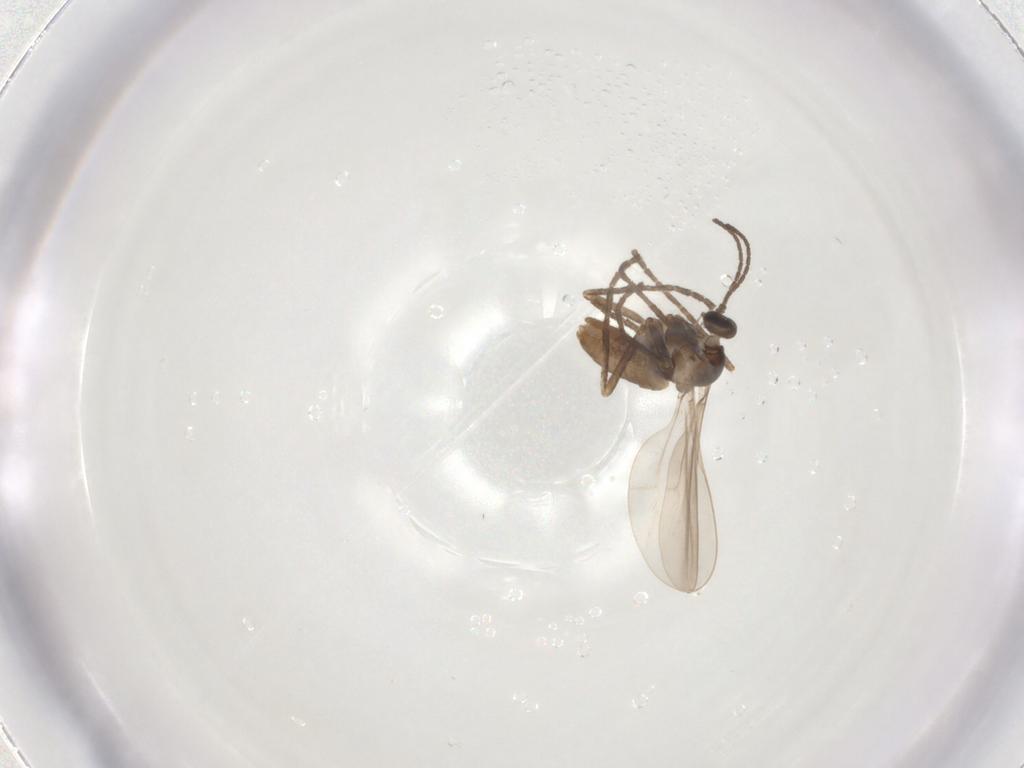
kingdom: Animalia
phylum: Arthropoda
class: Insecta
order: Diptera
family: Cecidomyiidae
